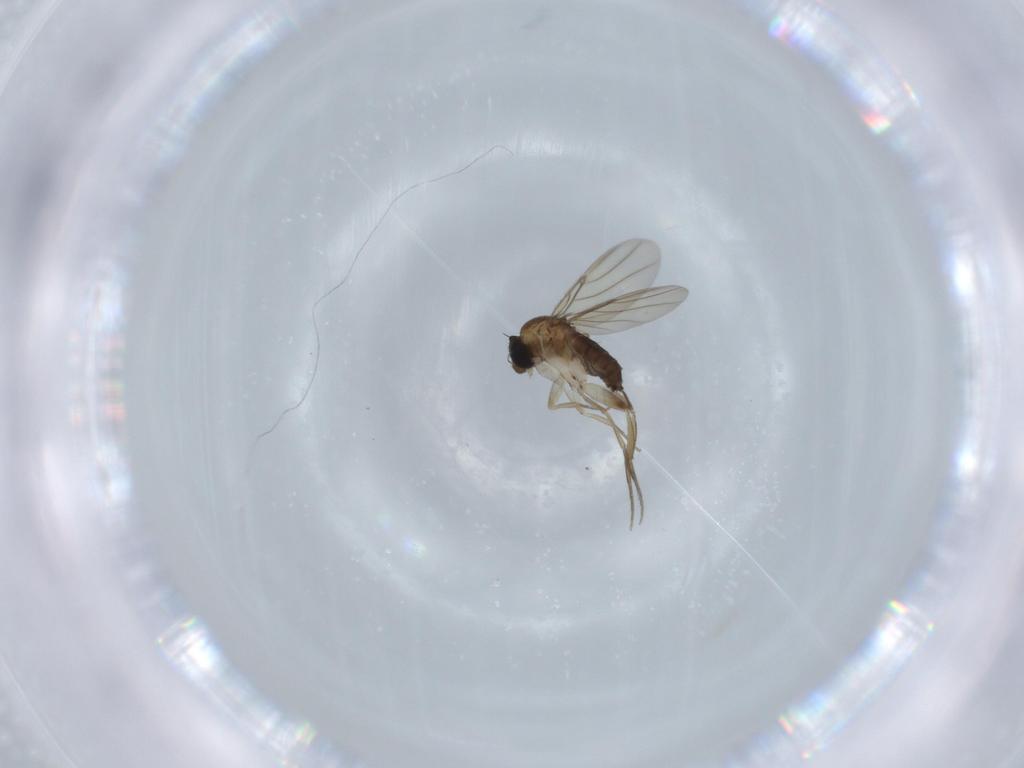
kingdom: Animalia
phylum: Arthropoda
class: Insecta
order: Diptera
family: Phoridae
